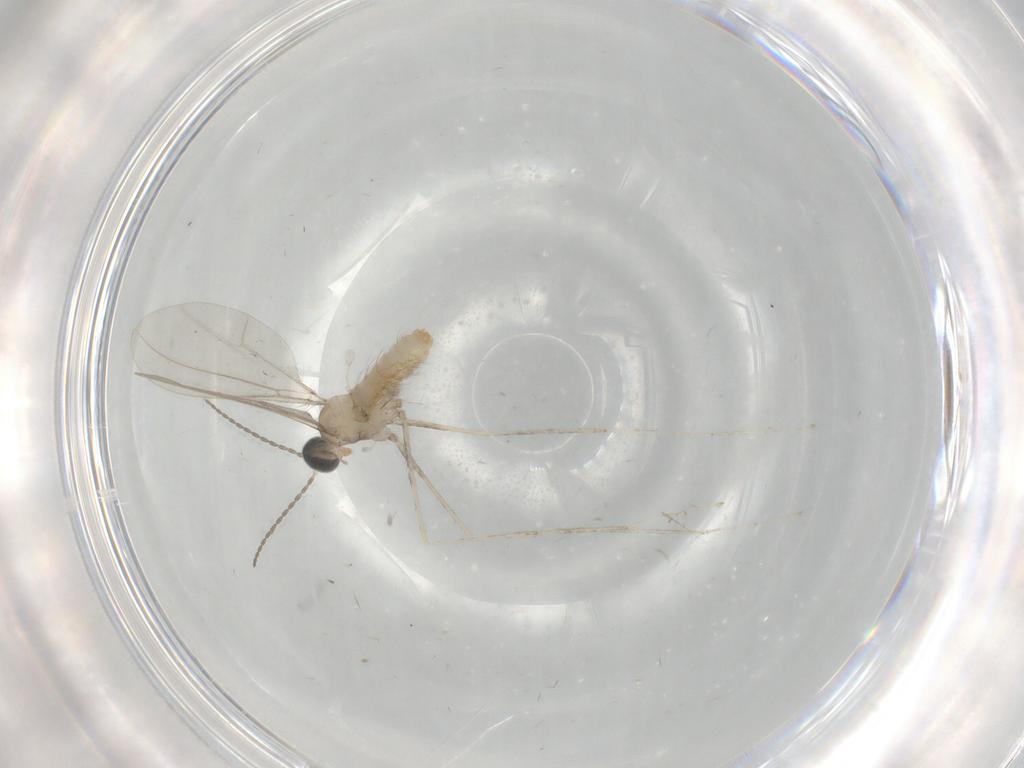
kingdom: Animalia
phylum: Arthropoda
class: Insecta
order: Diptera
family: Cecidomyiidae
